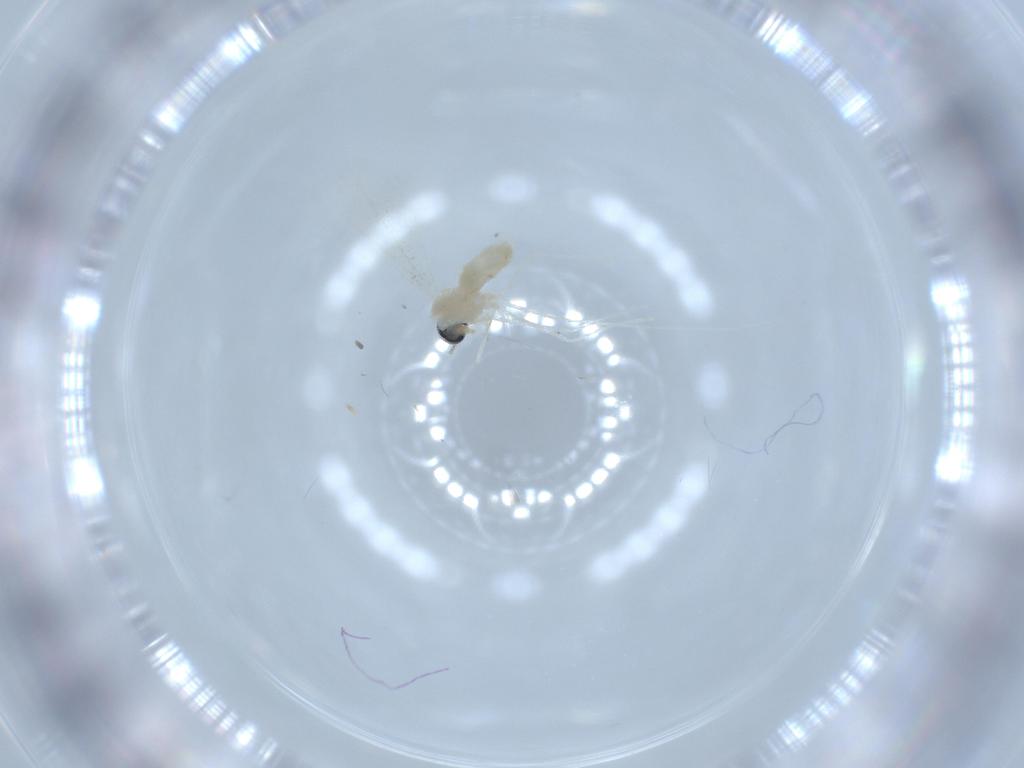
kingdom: Animalia
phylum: Arthropoda
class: Insecta
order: Diptera
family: Cecidomyiidae
